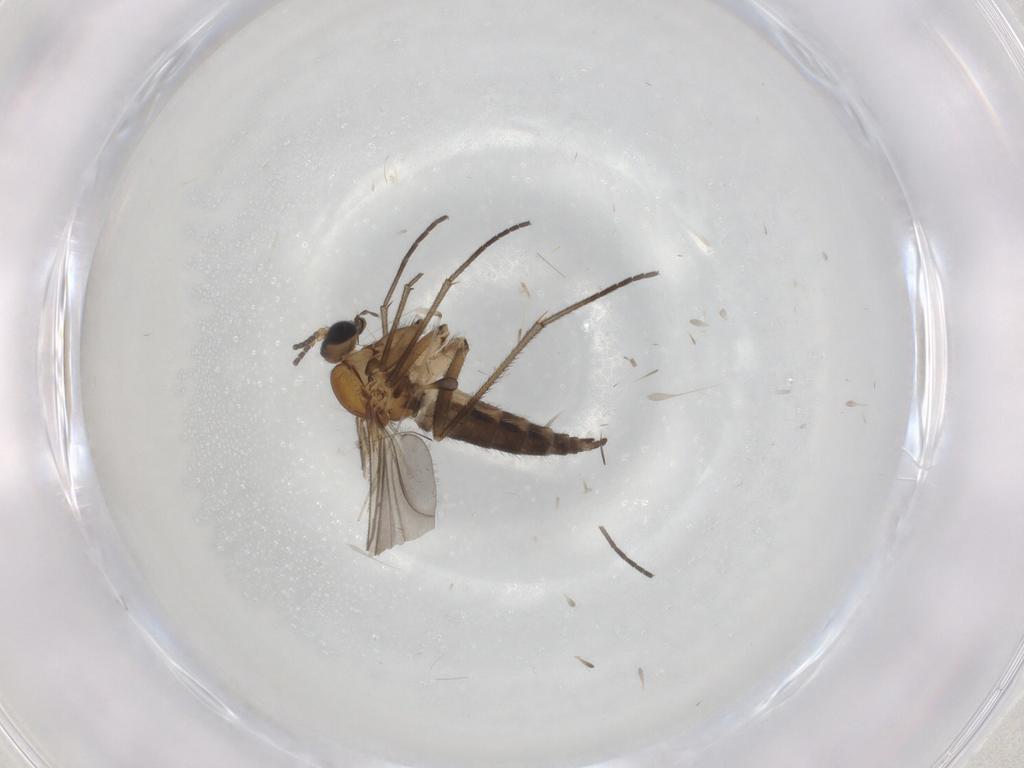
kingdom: Animalia
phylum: Arthropoda
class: Insecta
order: Diptera
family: Sciaridae
